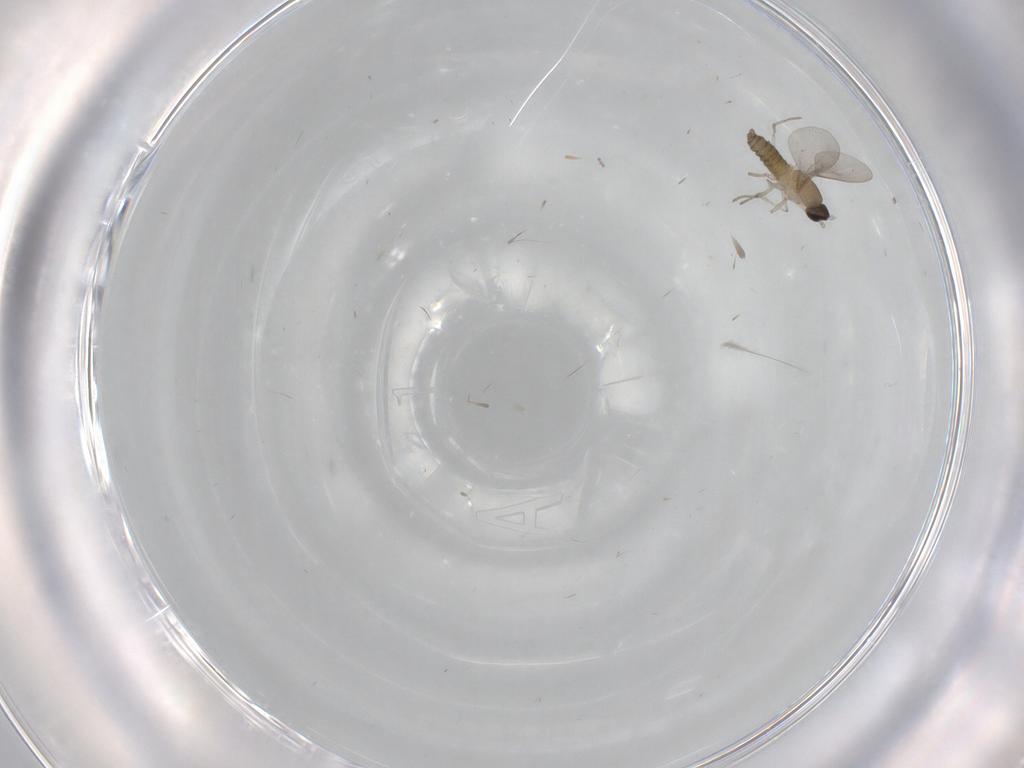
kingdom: Animalia
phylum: Arthropoda
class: Insecta
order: Diptera
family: Cecidomyiidae
